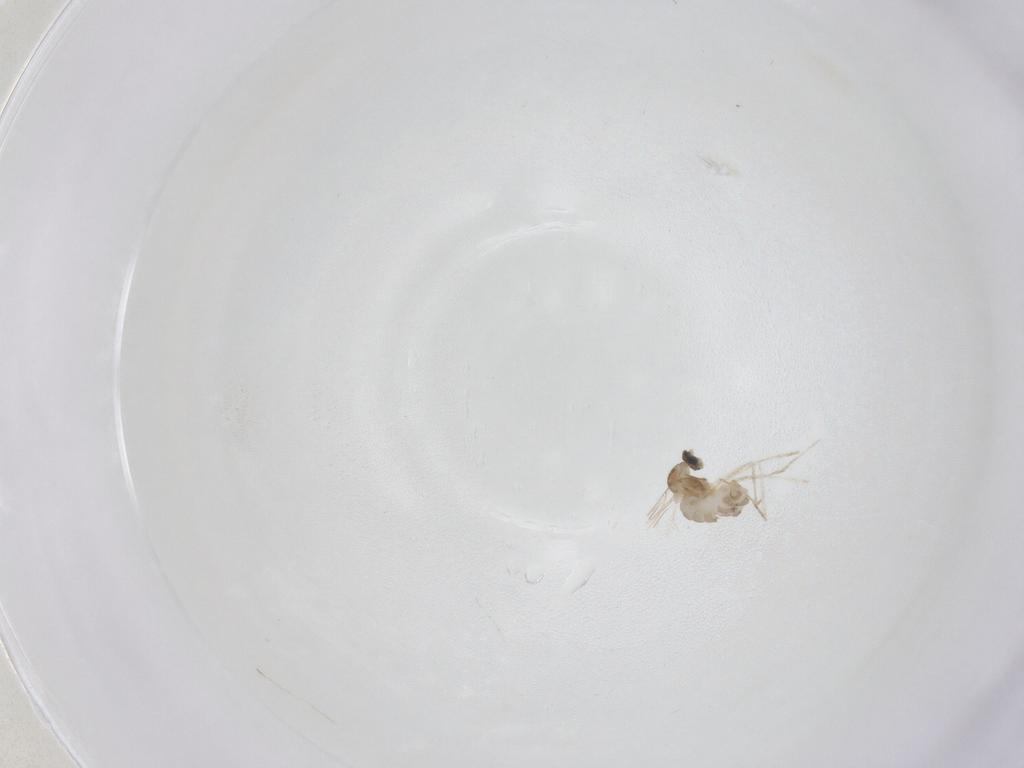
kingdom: Animalia
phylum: Arthropoda
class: Insecta
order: Diptera
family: Cecidomyiidae
